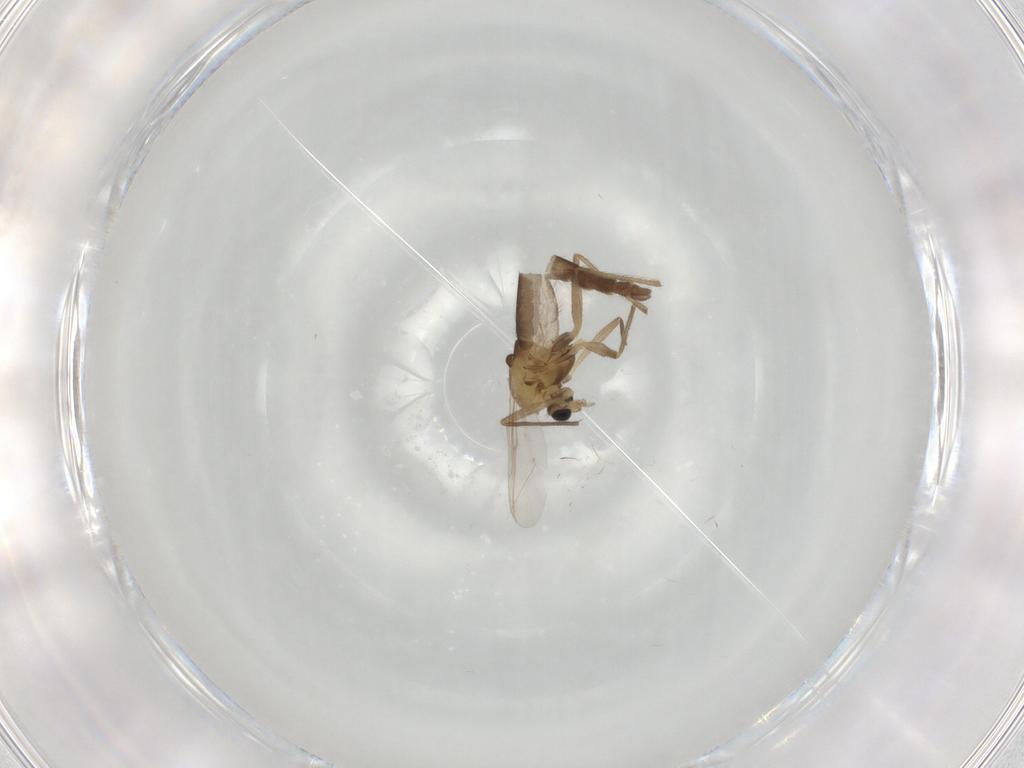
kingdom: Animalia
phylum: Arthropoda
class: Insecta
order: Diptera
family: Chironomidae
